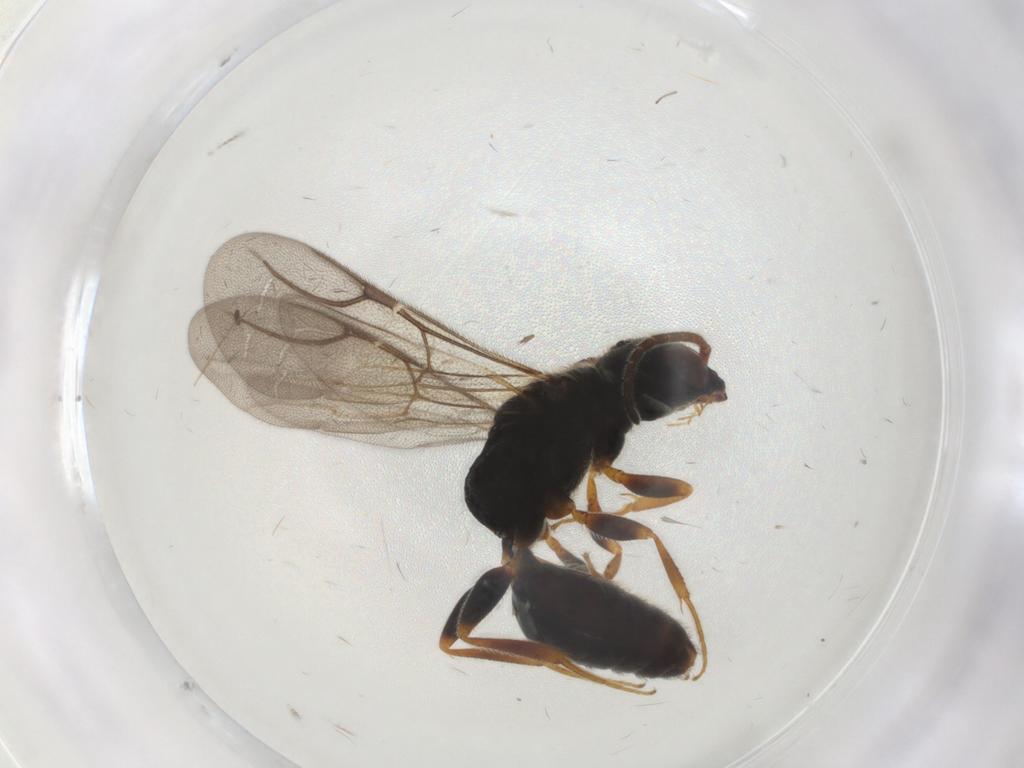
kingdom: Animalia
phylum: Arthropoda
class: Insecta
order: Hymenoptera
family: Bethylidae
